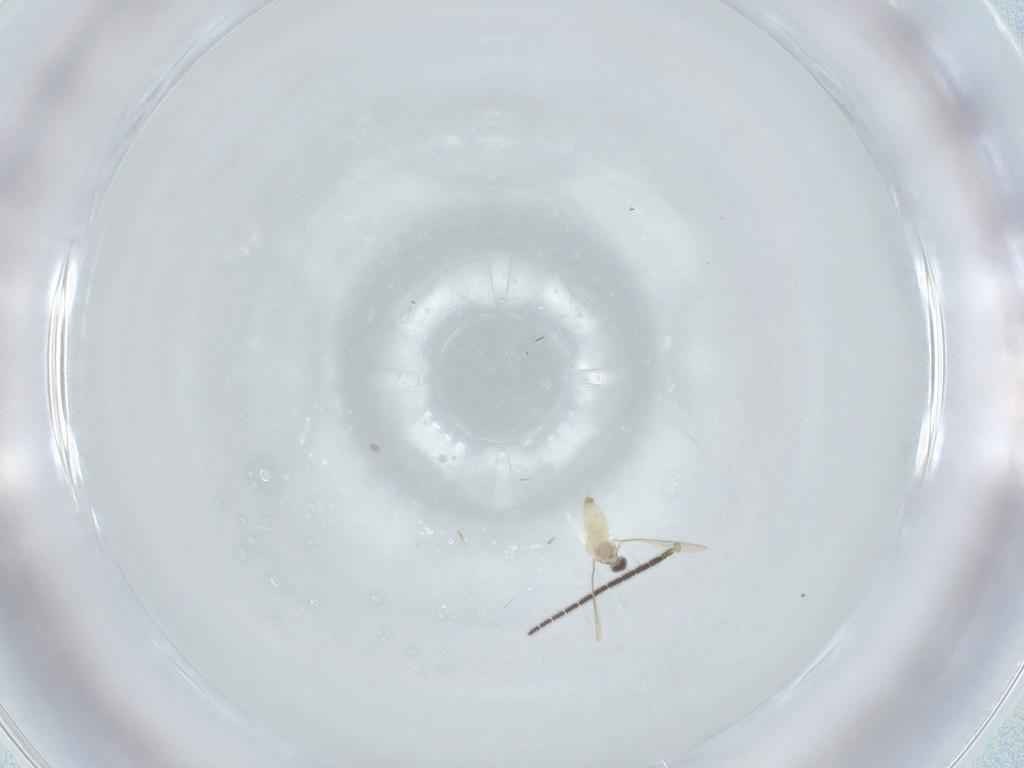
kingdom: Animalia
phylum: Arthropoda
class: Insecta
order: Diptera
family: Cecidomyiidae
